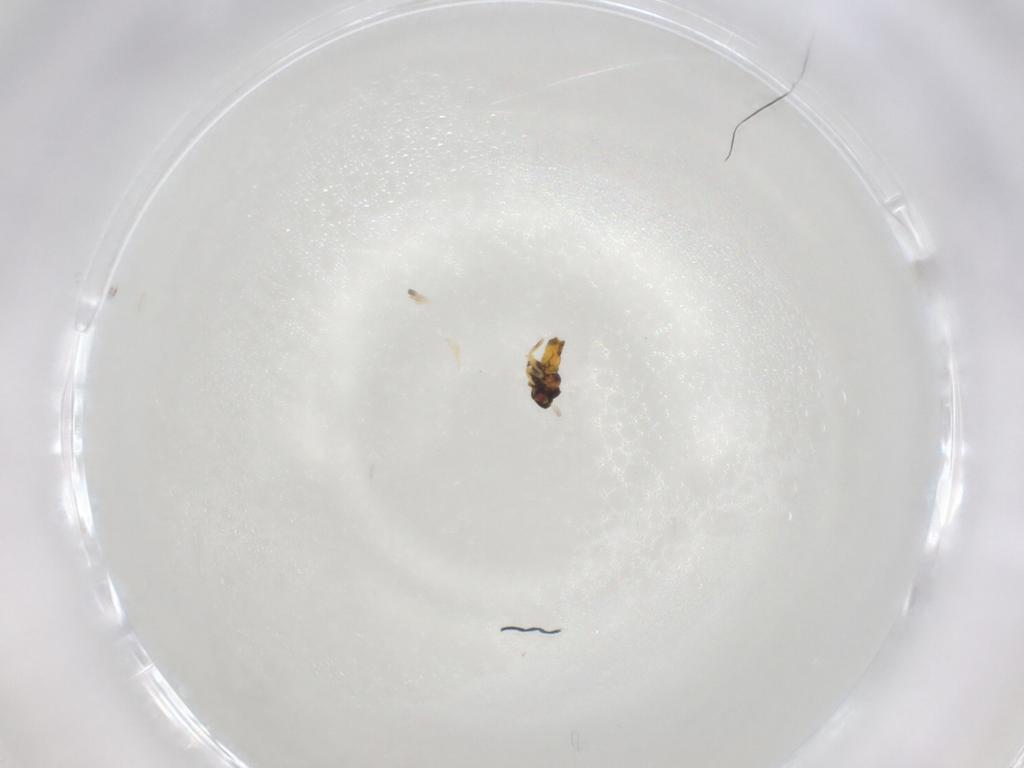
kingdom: Animalia
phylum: Arthropoda
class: Insecta
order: Hemiptera
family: Aleyrodidae
